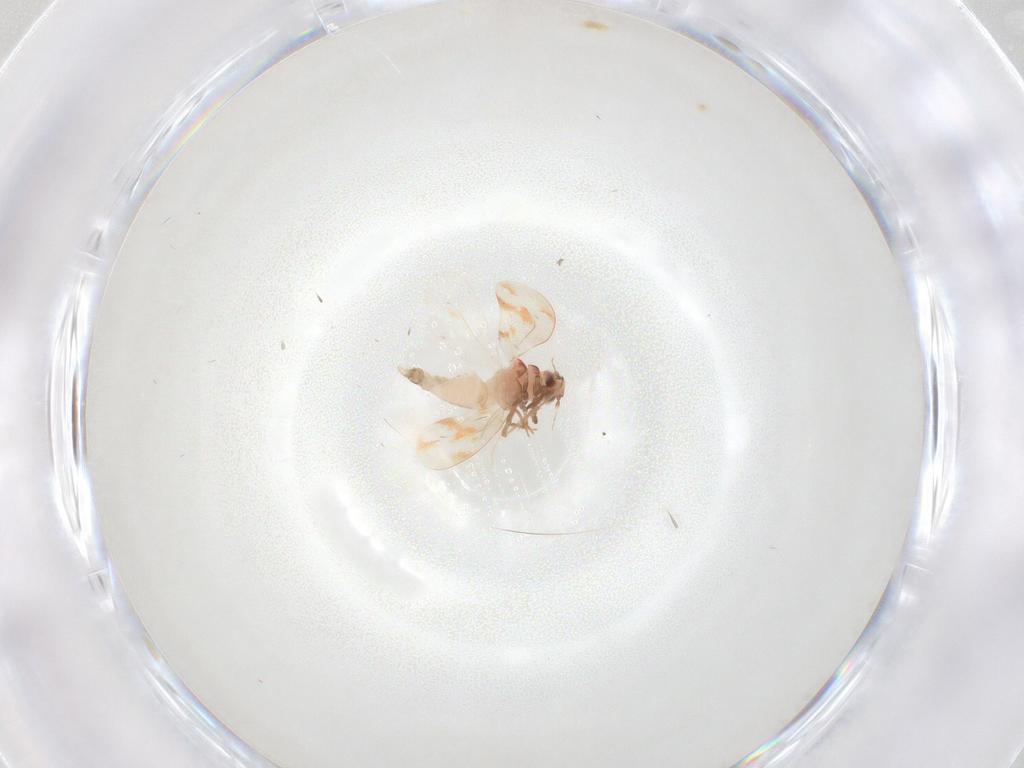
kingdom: Animalia
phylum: Arthropoda
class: Insecta
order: Hemiptera
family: Aleyrodidae
